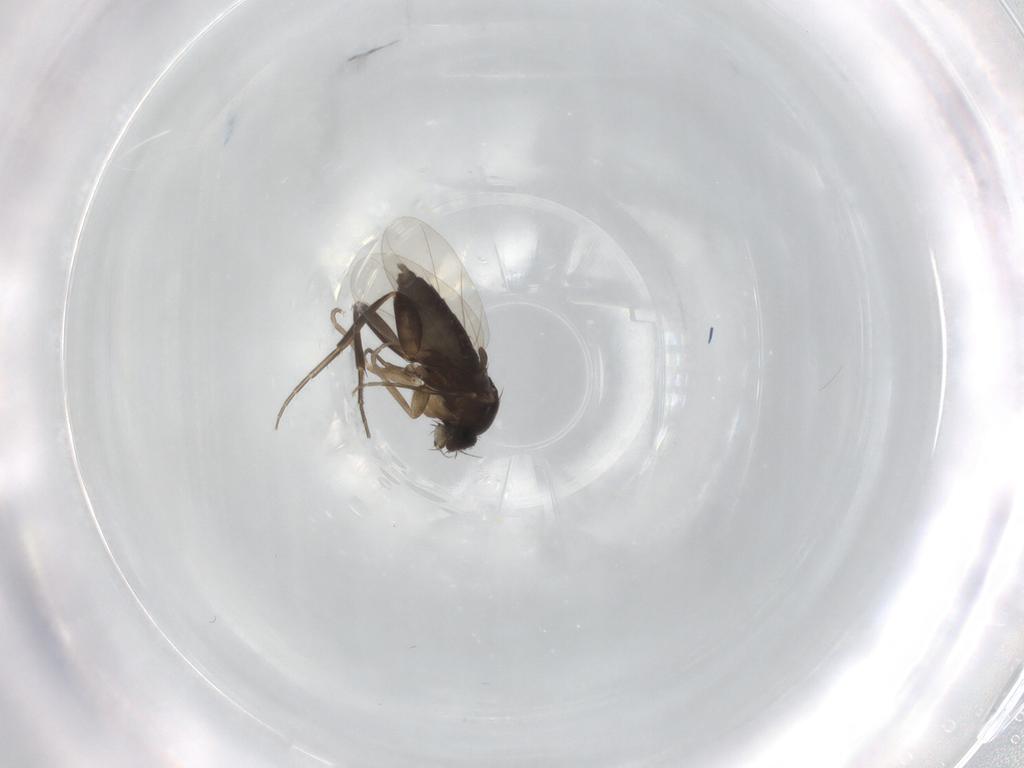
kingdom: Animalia
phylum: Arthropoda
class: Insecta
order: Diptera
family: Phoridae
